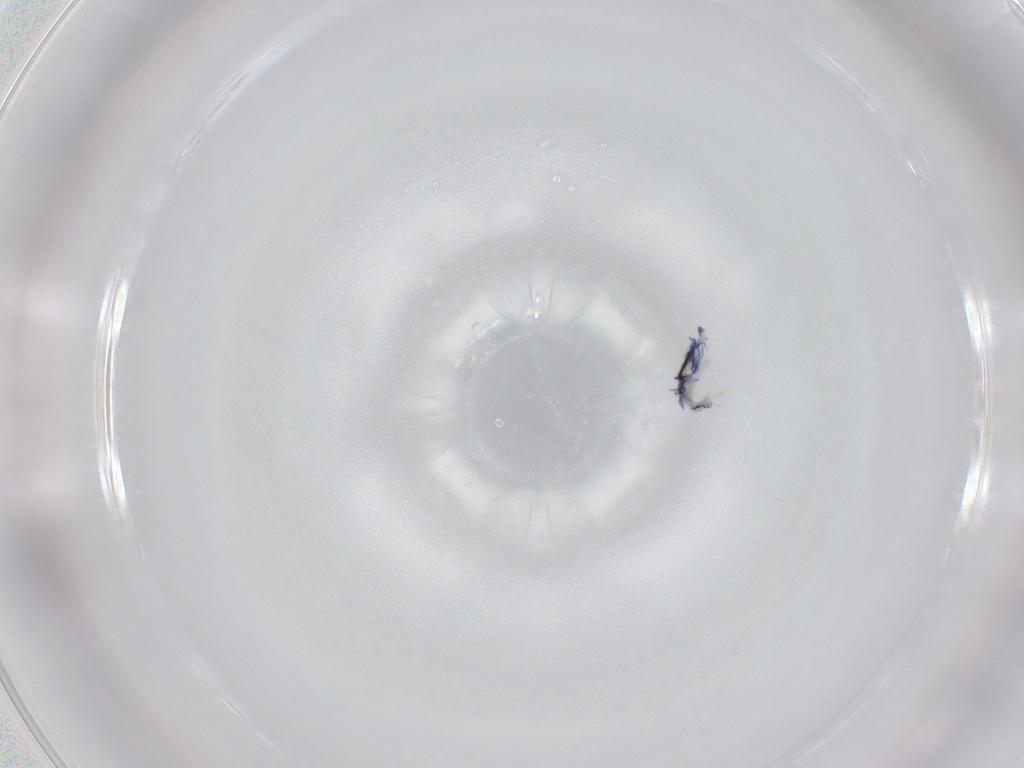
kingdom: Animalia
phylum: Arthropoda
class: Collembola
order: Entomobryomorpha
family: Entomobryidae
